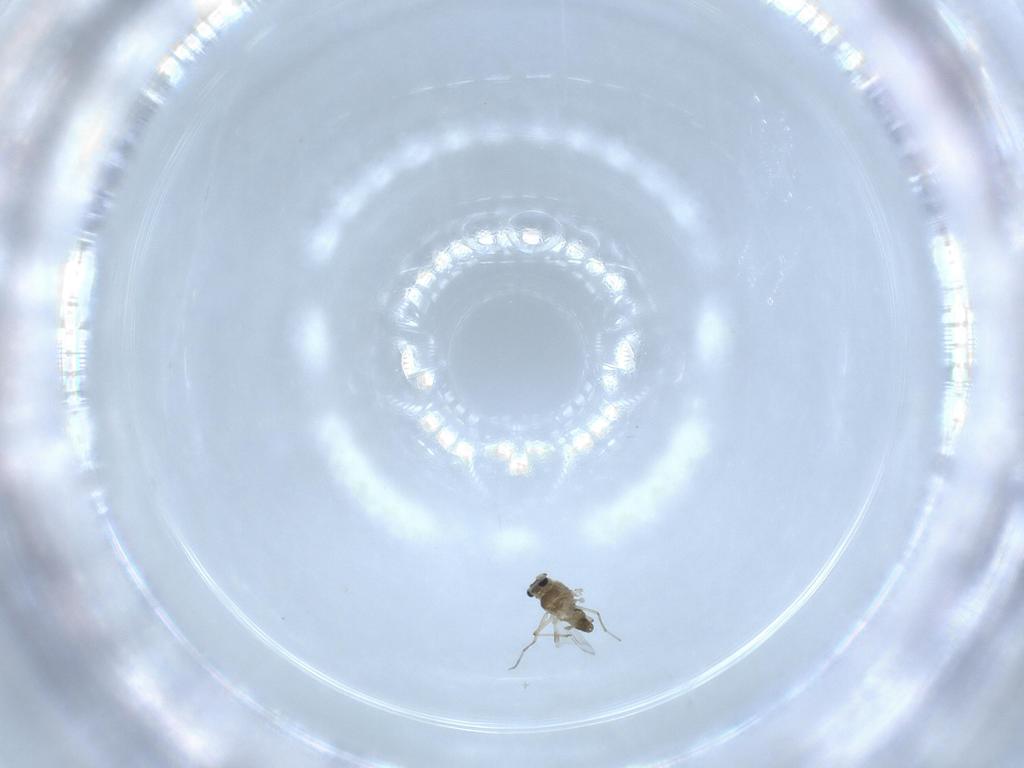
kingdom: Animalia
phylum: Arthropoda
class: Insecta
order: Diptera
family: Chironomidae
